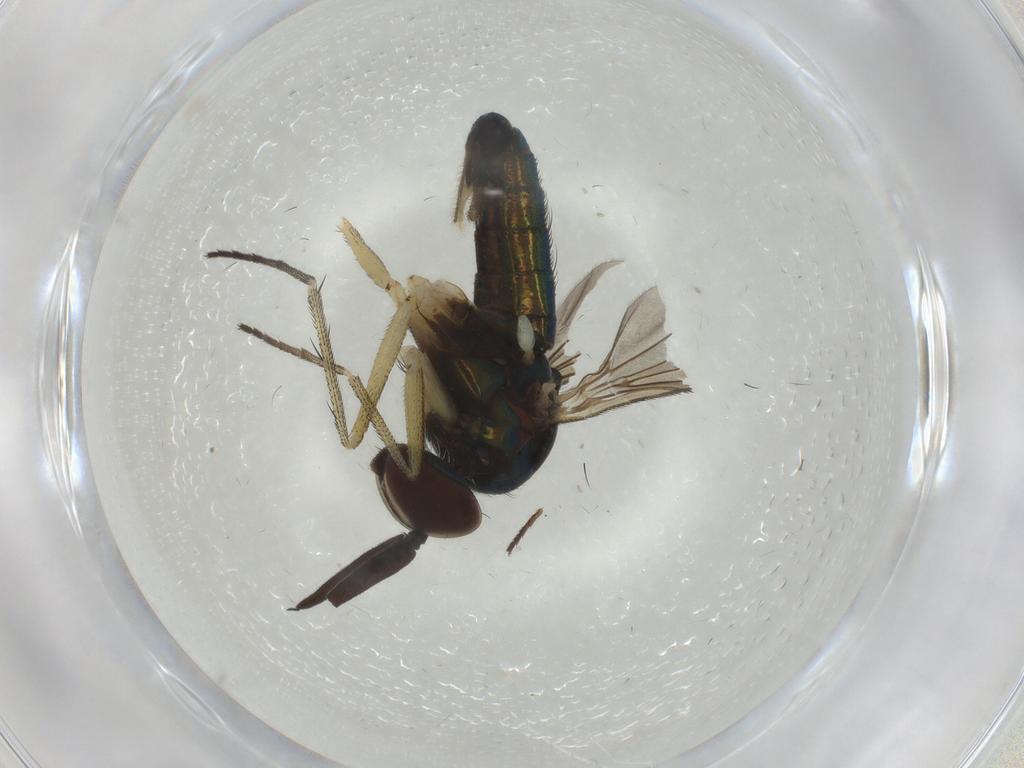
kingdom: Animalia
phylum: Arthropoda
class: Insecta
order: Diptera
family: Dolichopodidae
